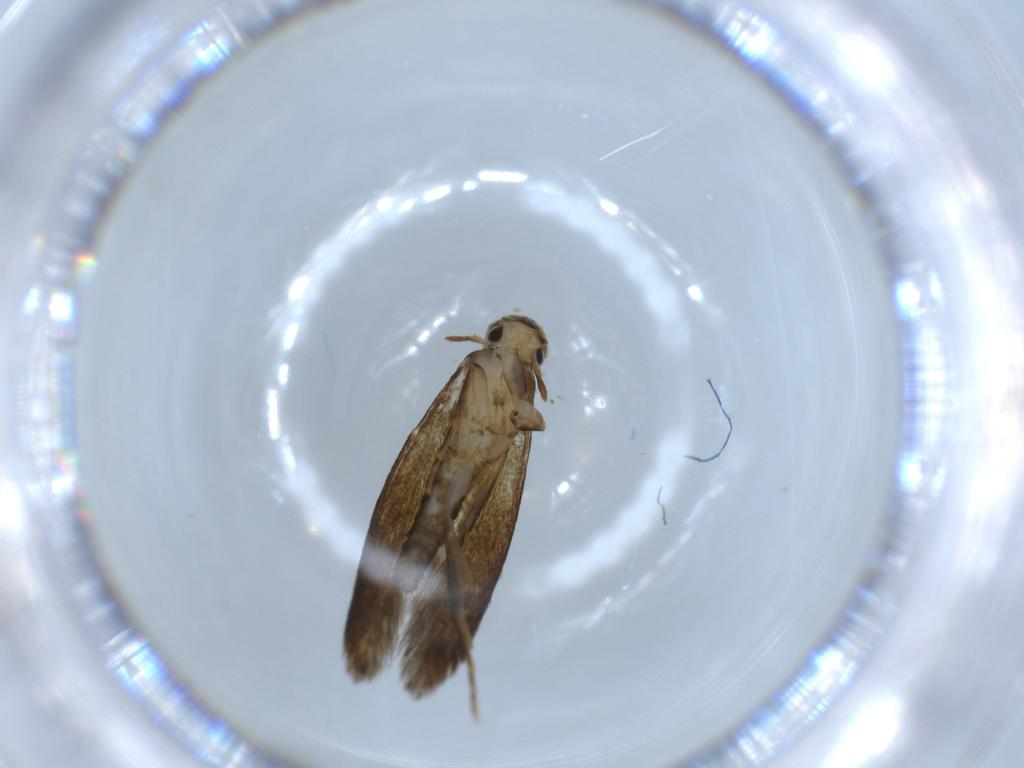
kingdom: Animalia
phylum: Arthropoda
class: Insecta
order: Lepidoptera
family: Tineidae
